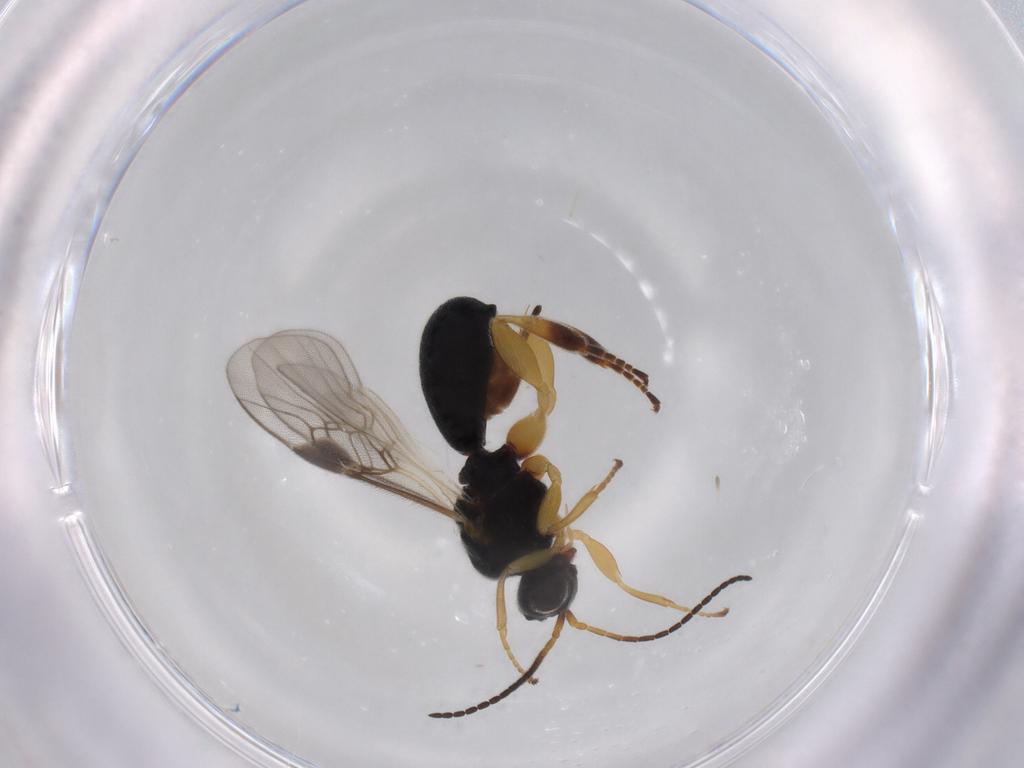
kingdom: Animalia
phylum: Arthropoda
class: Insecta
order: Hymenoptera
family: Braconidae
